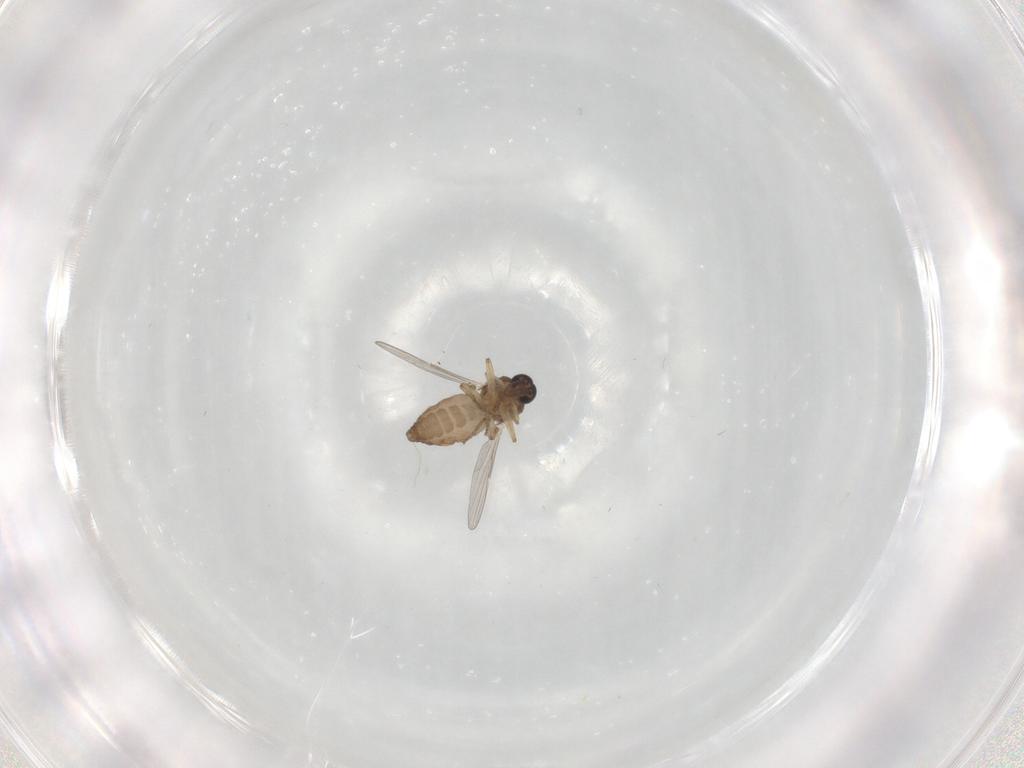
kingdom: Animalia
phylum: Arthropoda
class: Insecta
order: Diptera
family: Ceratopogonidae
